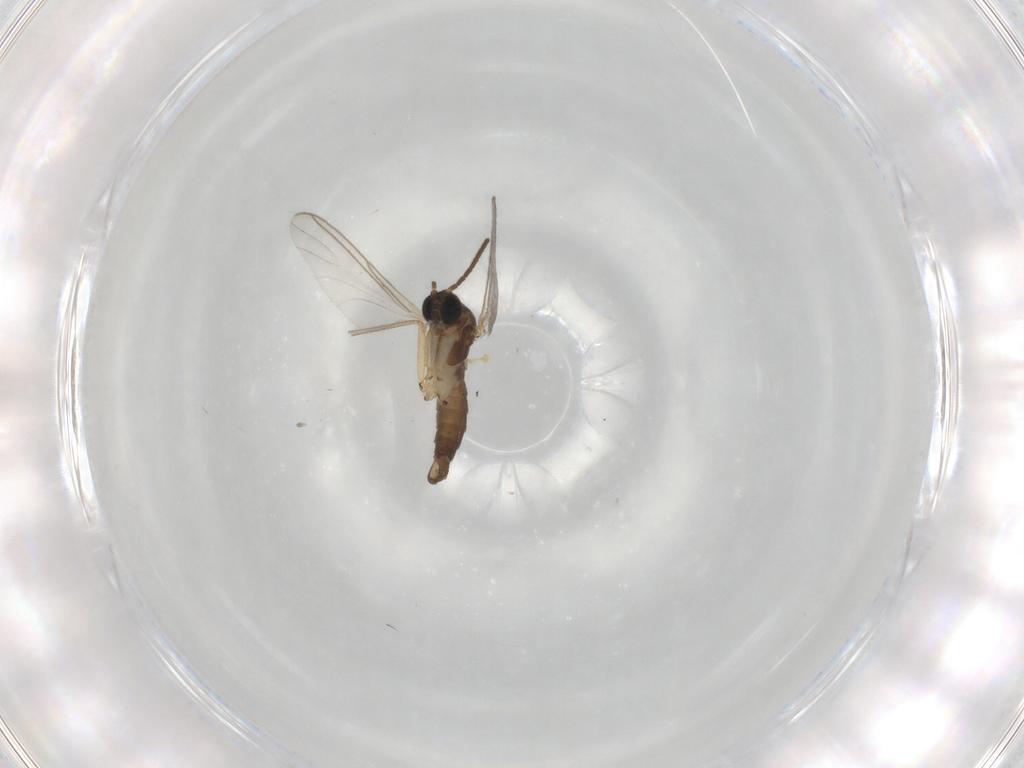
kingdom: Animalia
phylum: Arthropoda
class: Insecta
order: Diptera
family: Sciaridae
